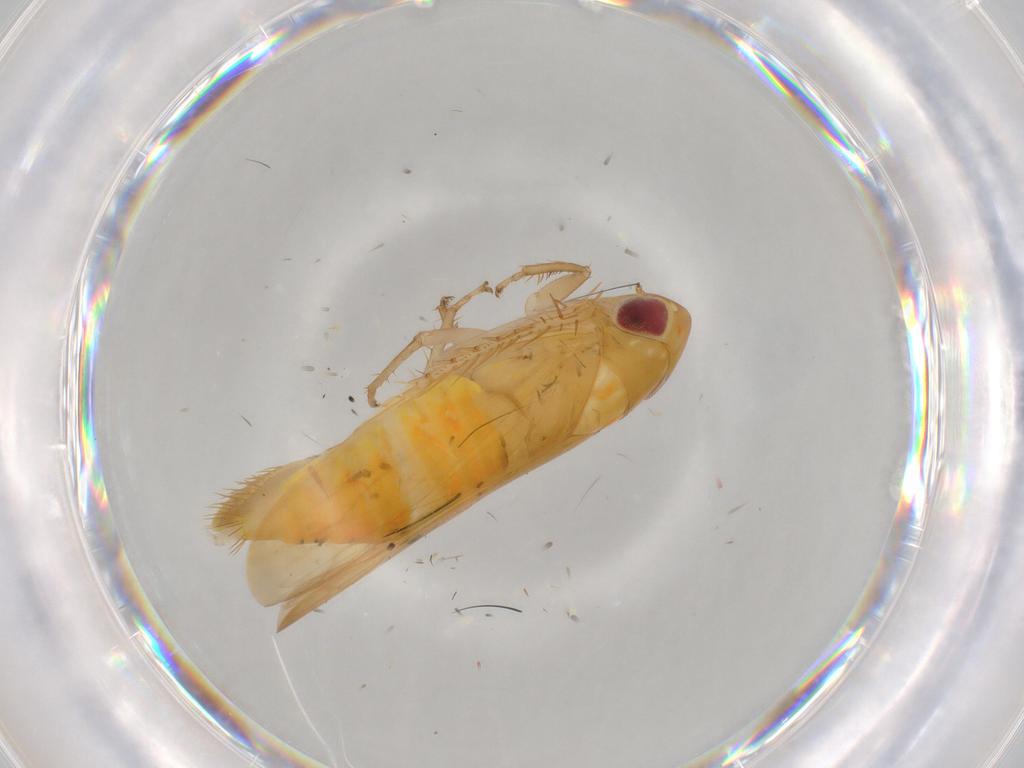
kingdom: Animalia
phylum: Arthropoda
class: Insecta
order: Hemiptera
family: Cicadellidae
